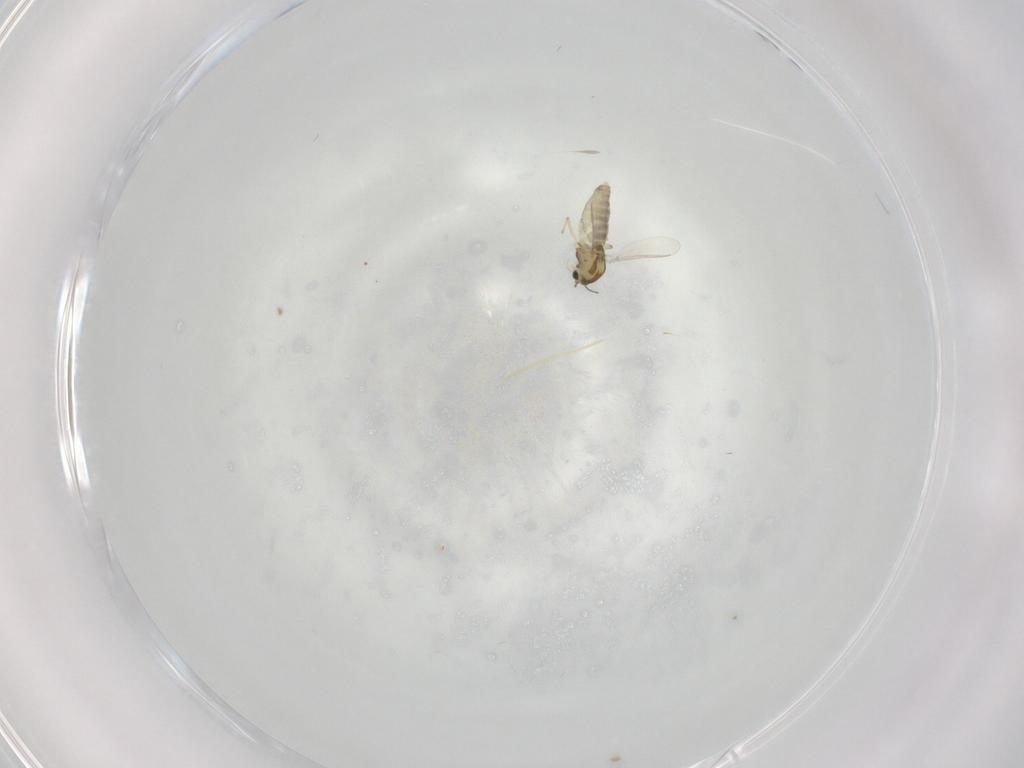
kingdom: Animalia
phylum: Arthropoda
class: Insecta
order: Diptera
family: Chironomidae
